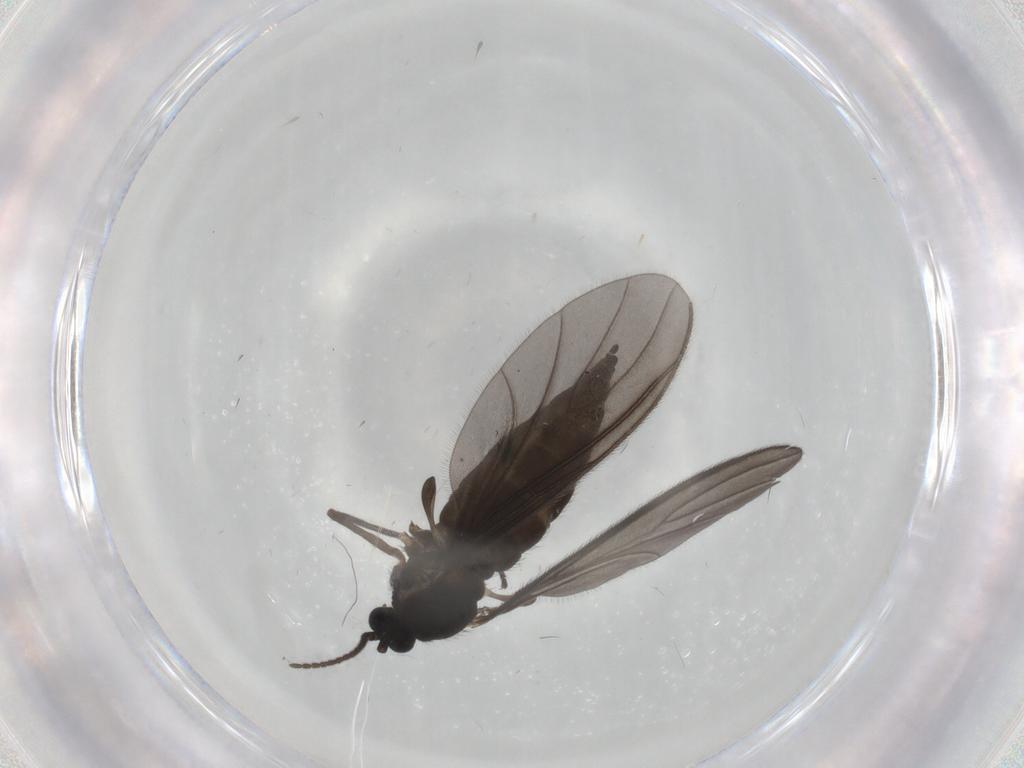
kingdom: Animalia
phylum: Arthropoda
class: Insecta
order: Diptera
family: Sciaridae
